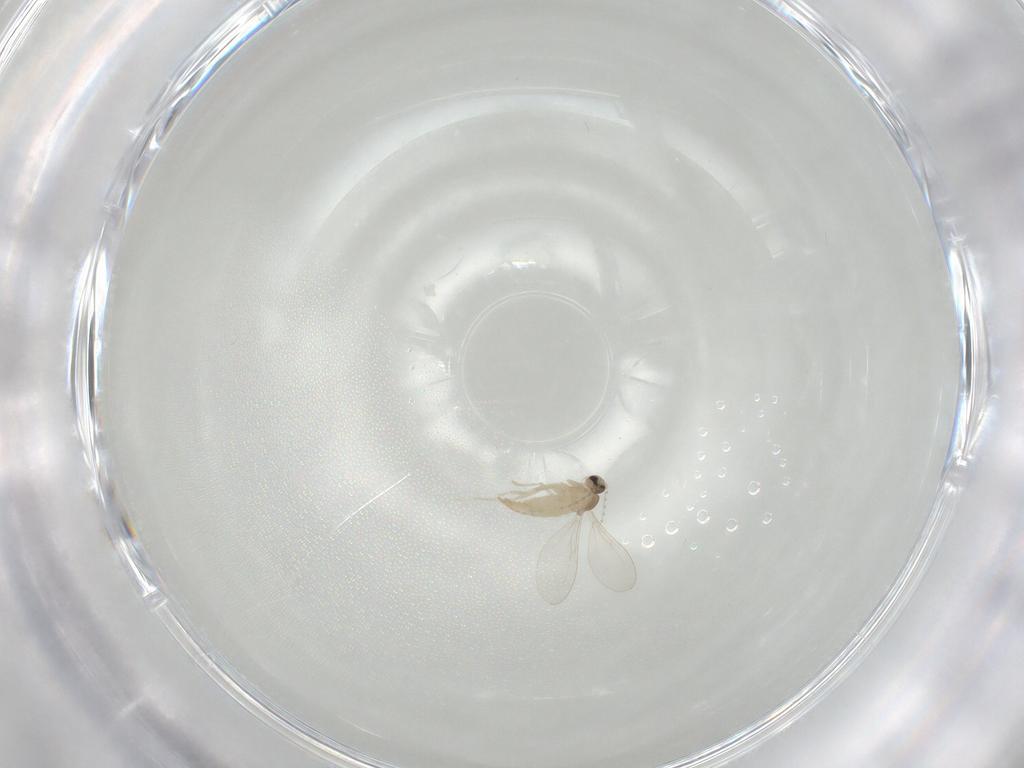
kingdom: Animalia
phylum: Arthropoda
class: Insecta
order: Diptera
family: Chironomidae
